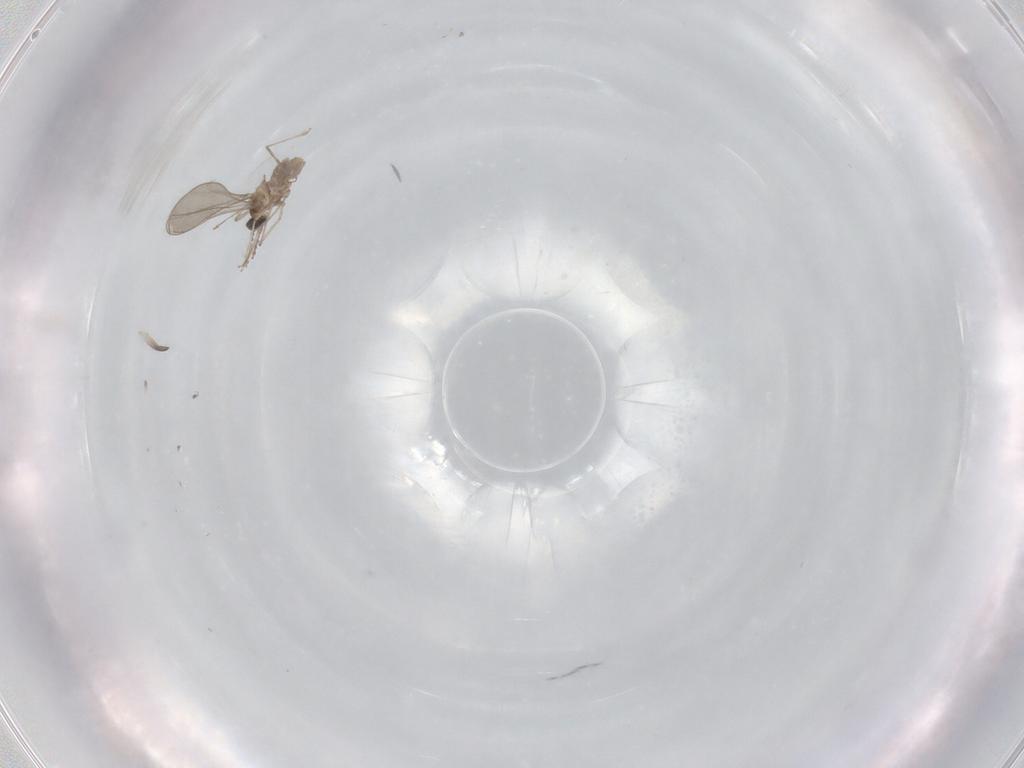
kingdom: Animalia
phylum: Arthropoda
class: Insecta
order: Diptera
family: Cecidomyiidae
